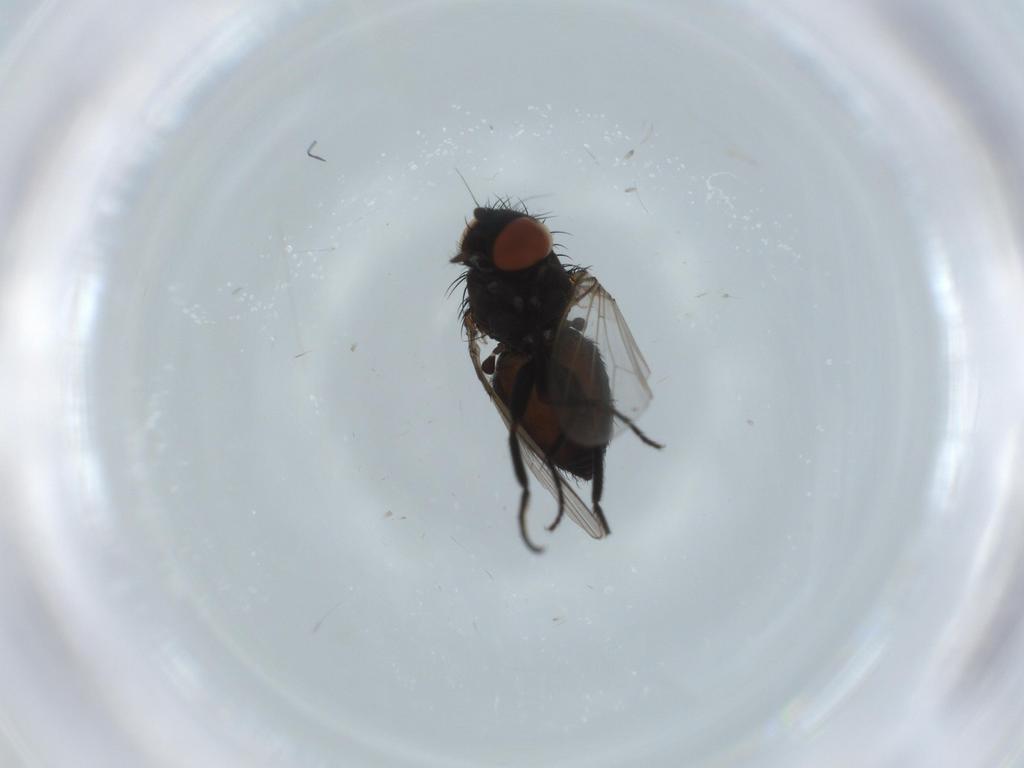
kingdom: Animalia
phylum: Arthropoda
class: Insecta
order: Diptera
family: Milichiidae
